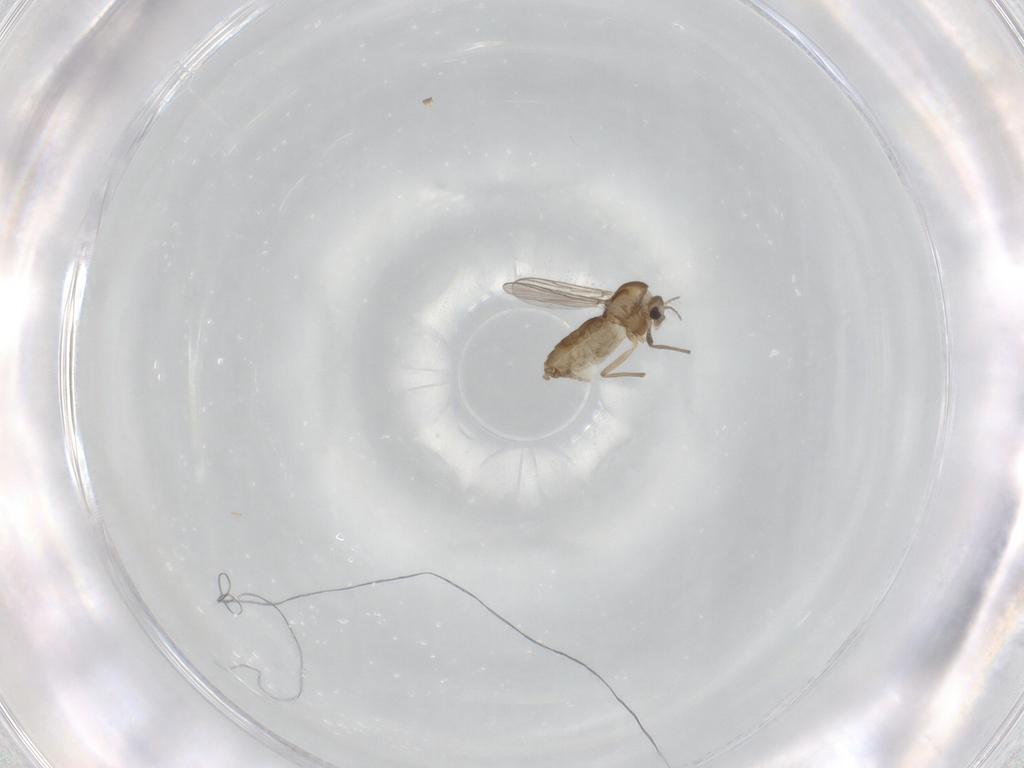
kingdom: Animalia
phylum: Arthropoda
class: Insecta
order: Diptera
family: Chironomidae
